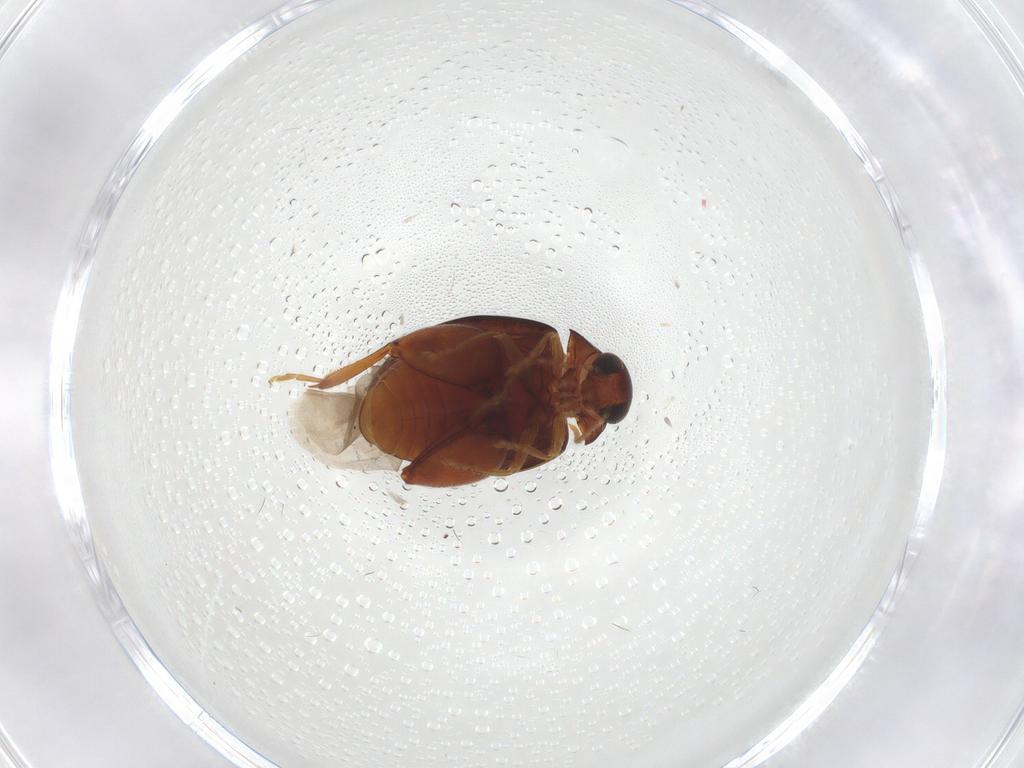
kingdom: Animalia
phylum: Arthropoda
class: Insecta
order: Coleoptera
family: Chrysomelidae
